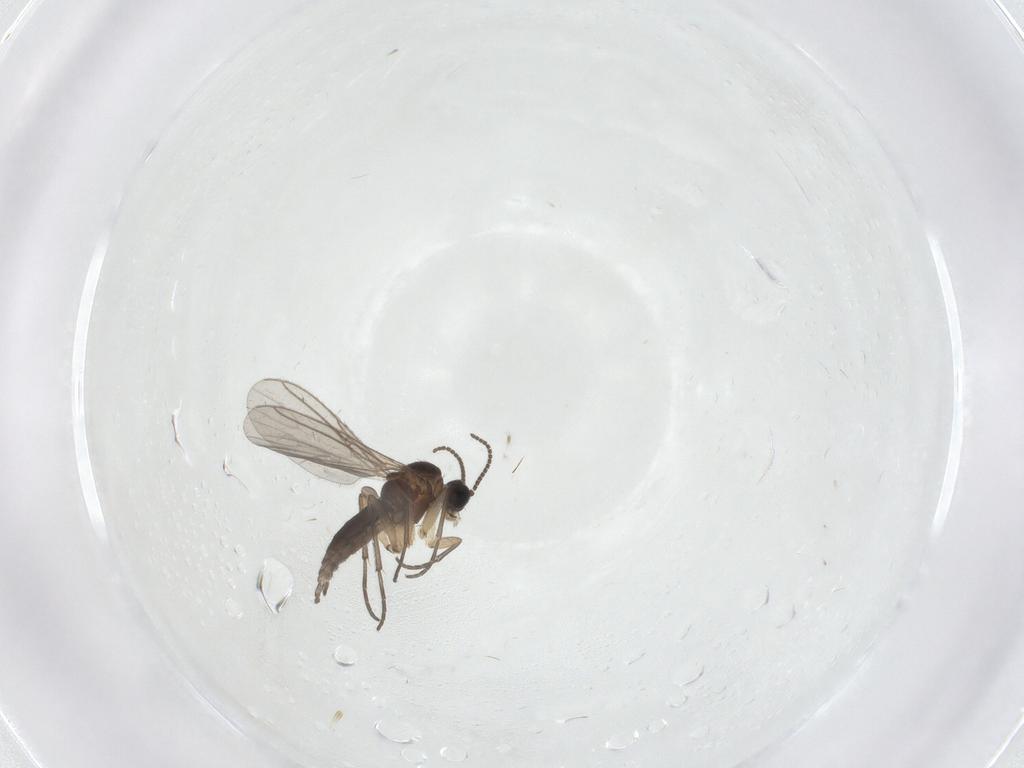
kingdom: Animalia
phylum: Arthropoda
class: Insecta
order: Diptera
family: Sciaridae
